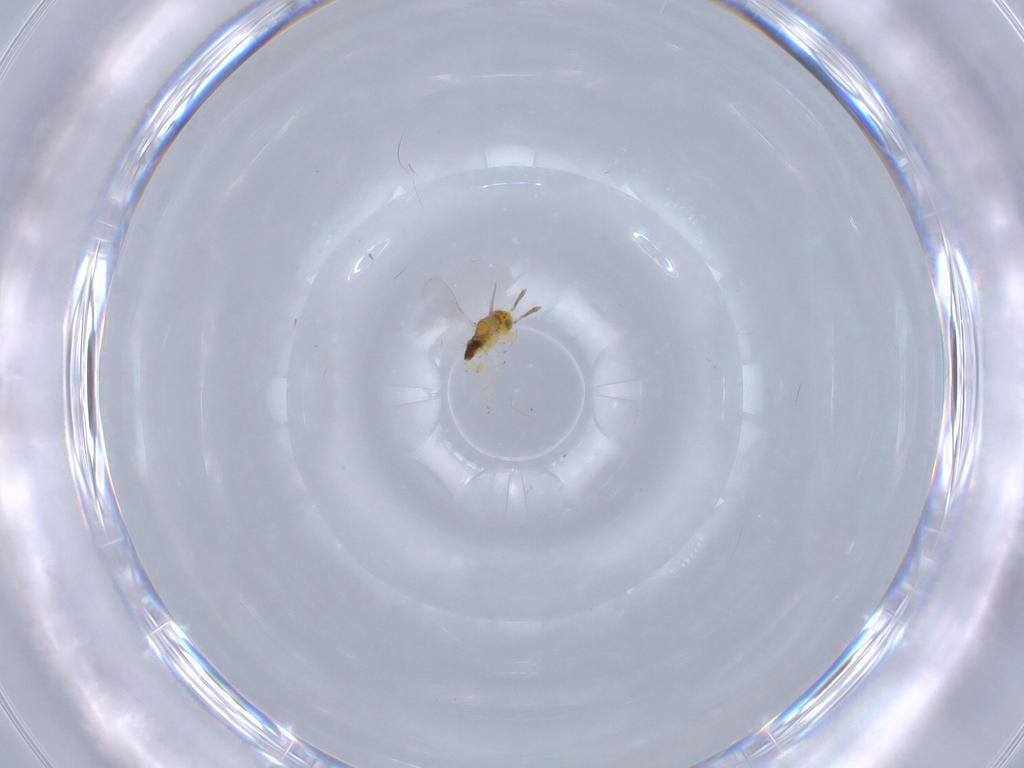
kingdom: Animalia
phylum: Arthropoda
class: Insecta
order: Hymenoptera
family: Encyrtidae
